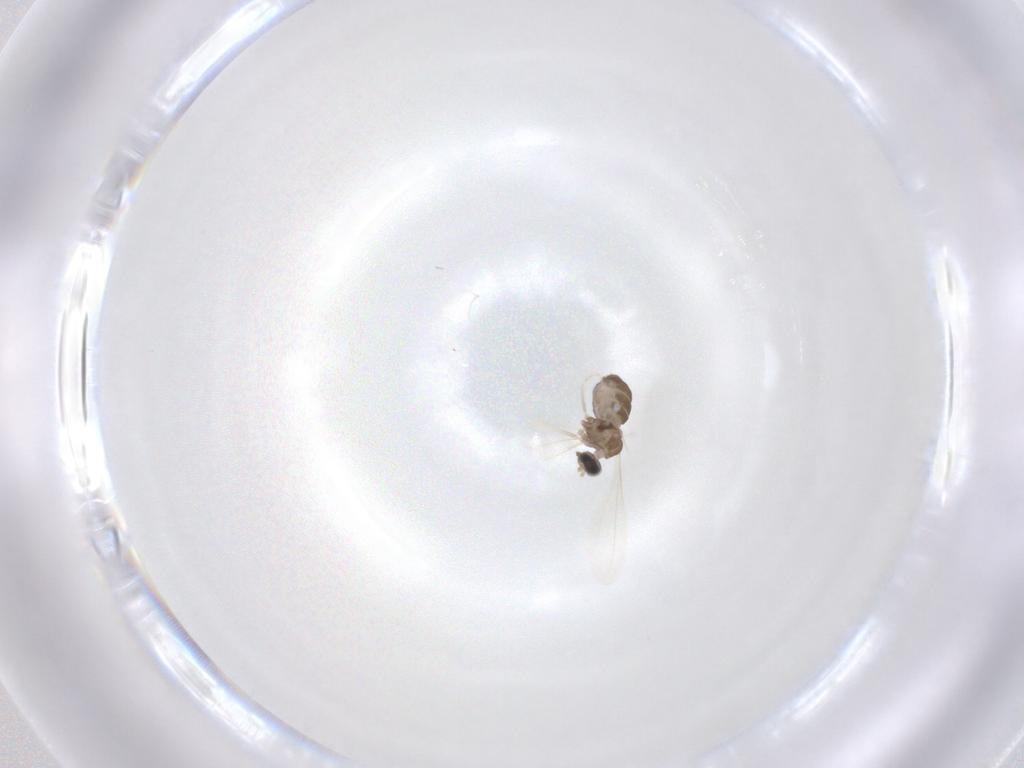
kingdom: Animalia
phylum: Arthropoda
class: Insecta
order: Diptera
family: Cecidomyiidae
